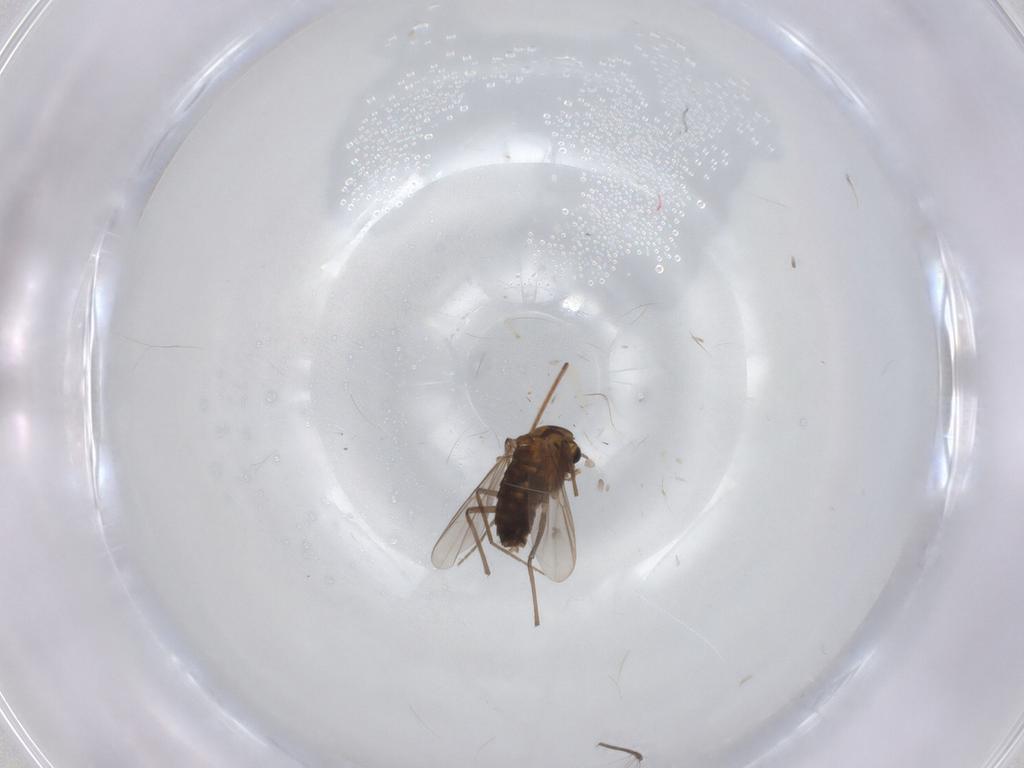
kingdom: Animalia
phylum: Arthropoda
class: Insecta
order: Diptera
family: Chironomidae
